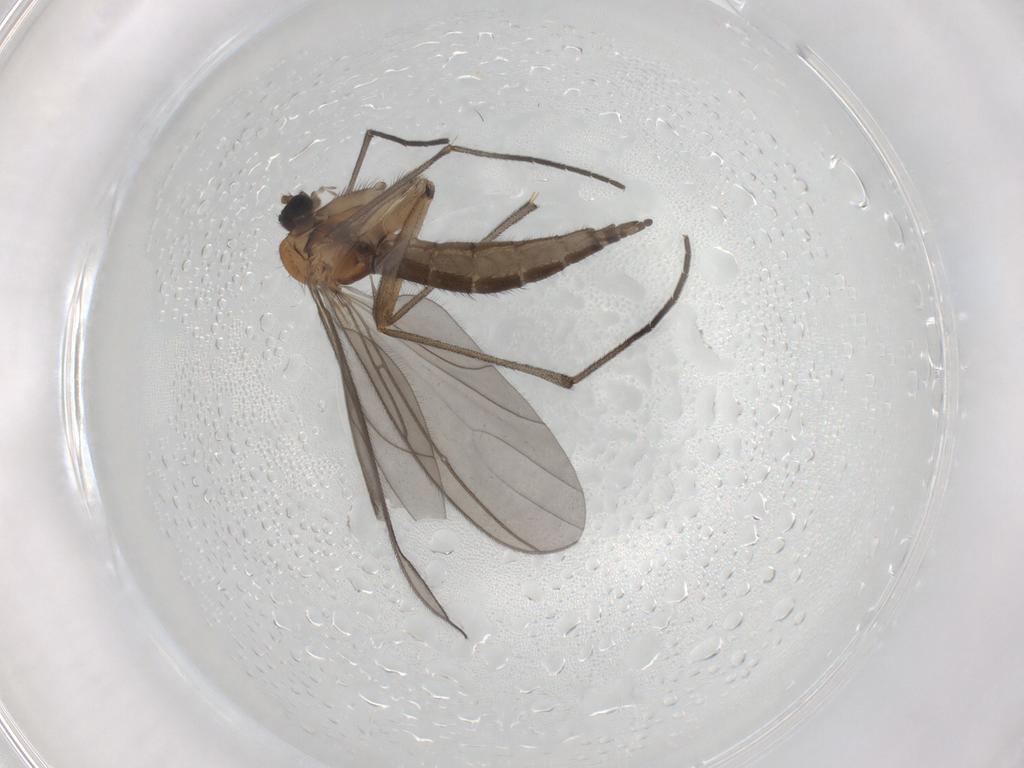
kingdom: Animalia
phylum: Arthropoda
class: Insecta
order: Diptera
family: Sciaridae
